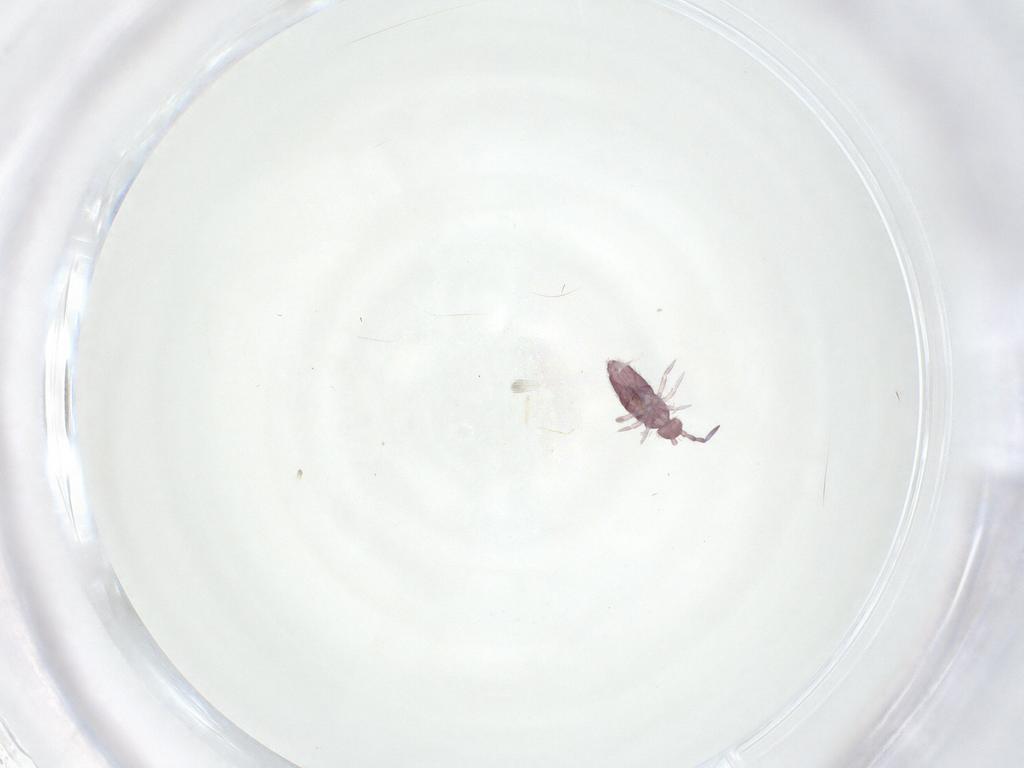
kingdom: Animalia
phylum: Arthropoda
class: Collembola
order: Entomobryomorpha
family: Entomobryidae
